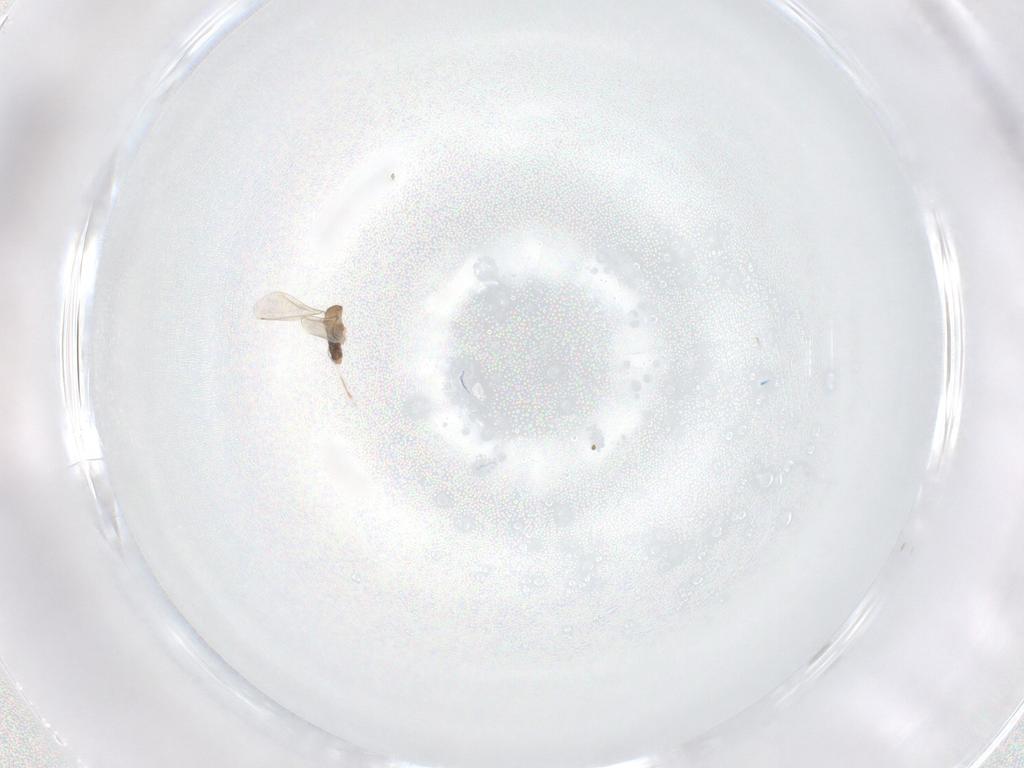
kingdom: Animalia
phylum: Arthropoda
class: Insecta
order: Diptera
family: Cecidomyiidae
